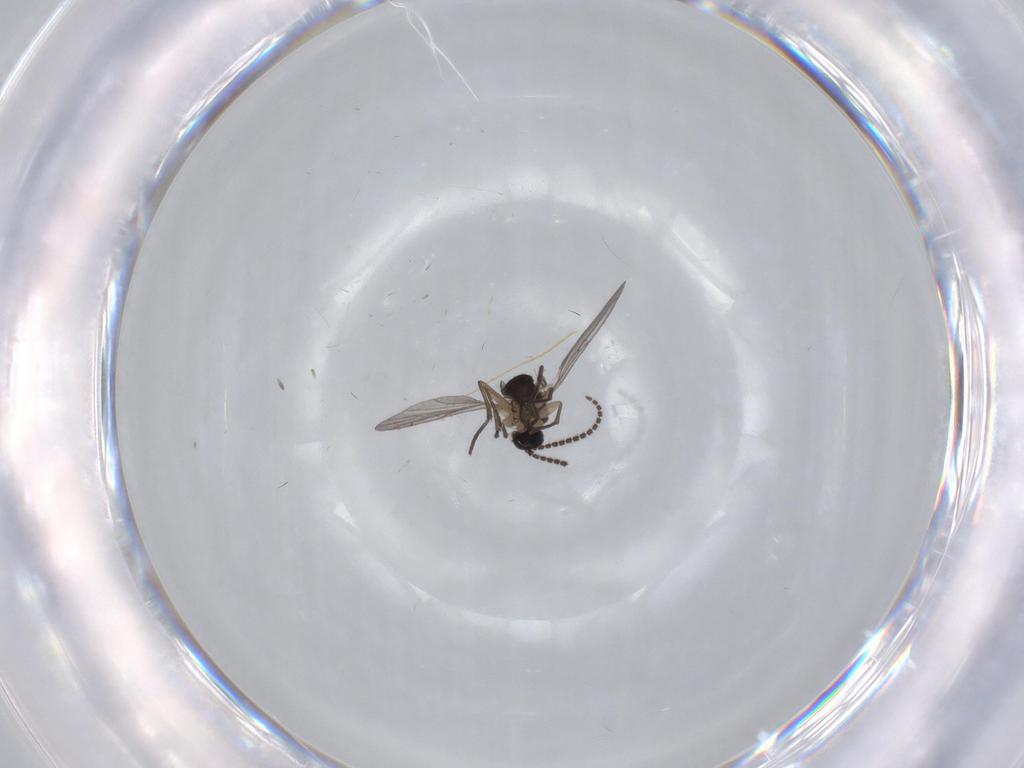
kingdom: Animalia
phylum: Arthropoda
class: Insecta
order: Diptera
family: Sciaridae
